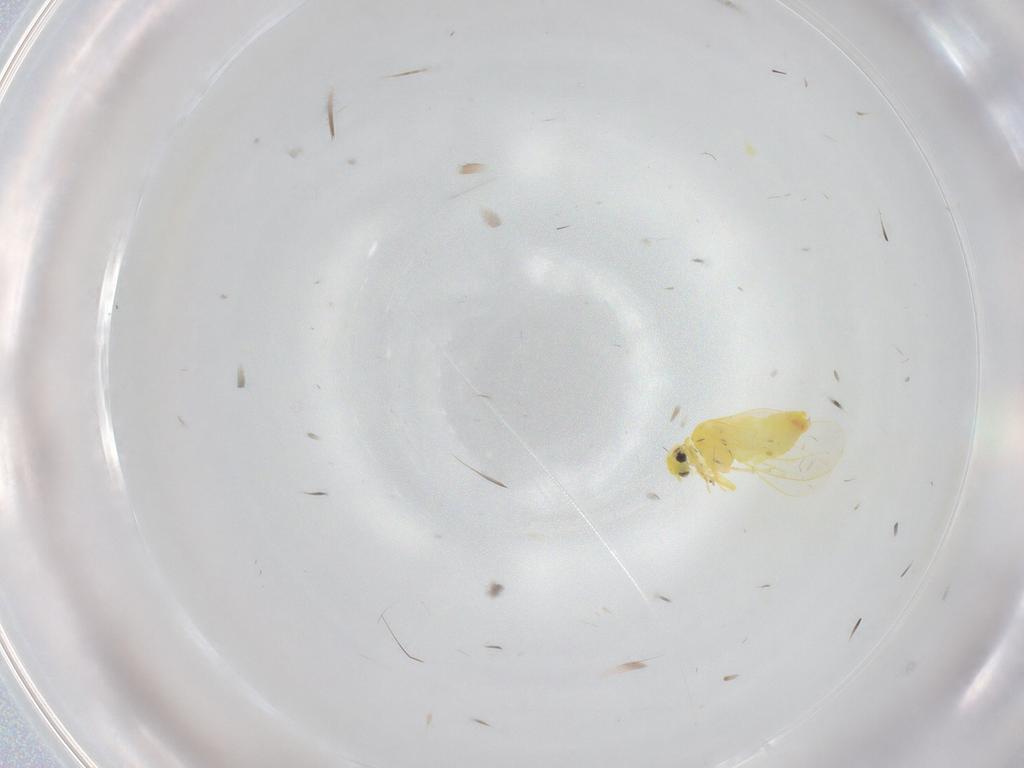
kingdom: Animalia
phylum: Arthropoda
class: Insecta
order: Hemiptera
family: Aleyrodidae
